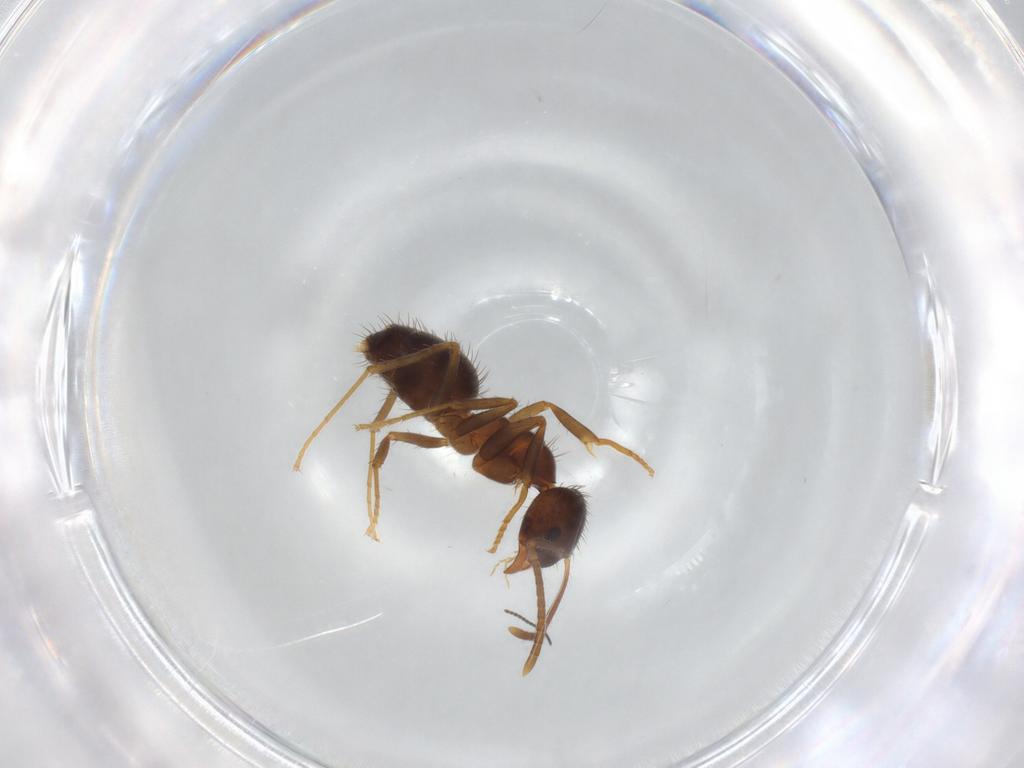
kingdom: Animalia
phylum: Arthropoda
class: Insecta
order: Hymenoptera
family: Formicidae
